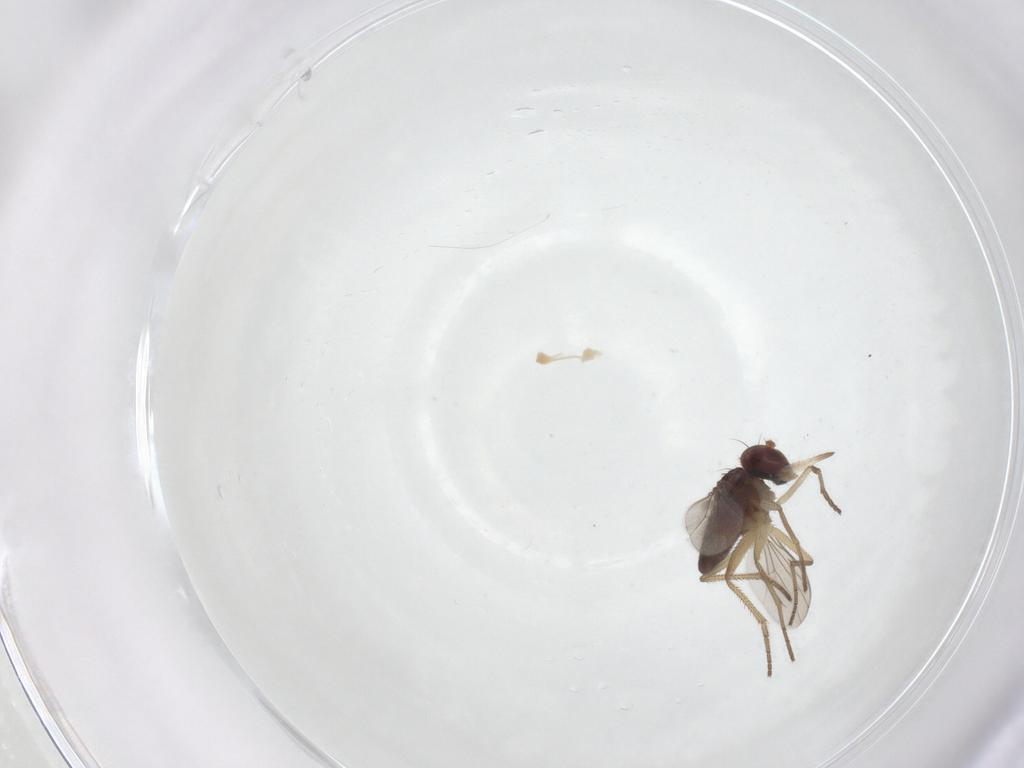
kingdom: Animalia
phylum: Arthropoda
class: Insecta
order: Diptera
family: Dolichopodidae
